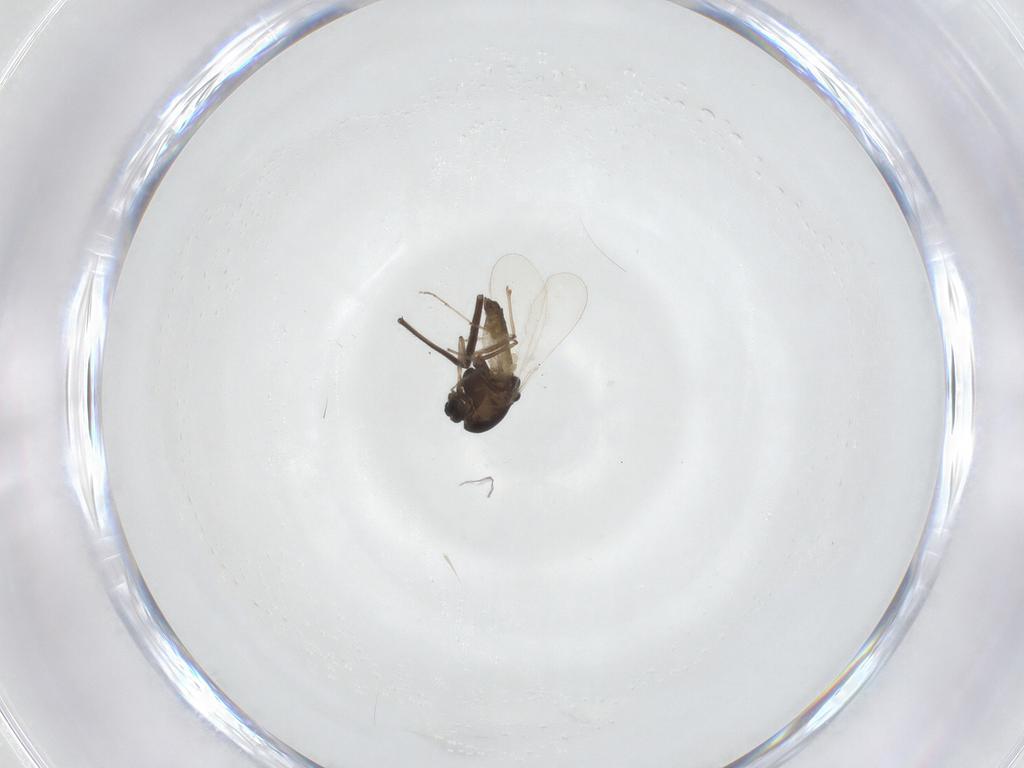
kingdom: Animalia
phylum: Arthropoda
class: Insecta
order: Diptera
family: Chironomidae
